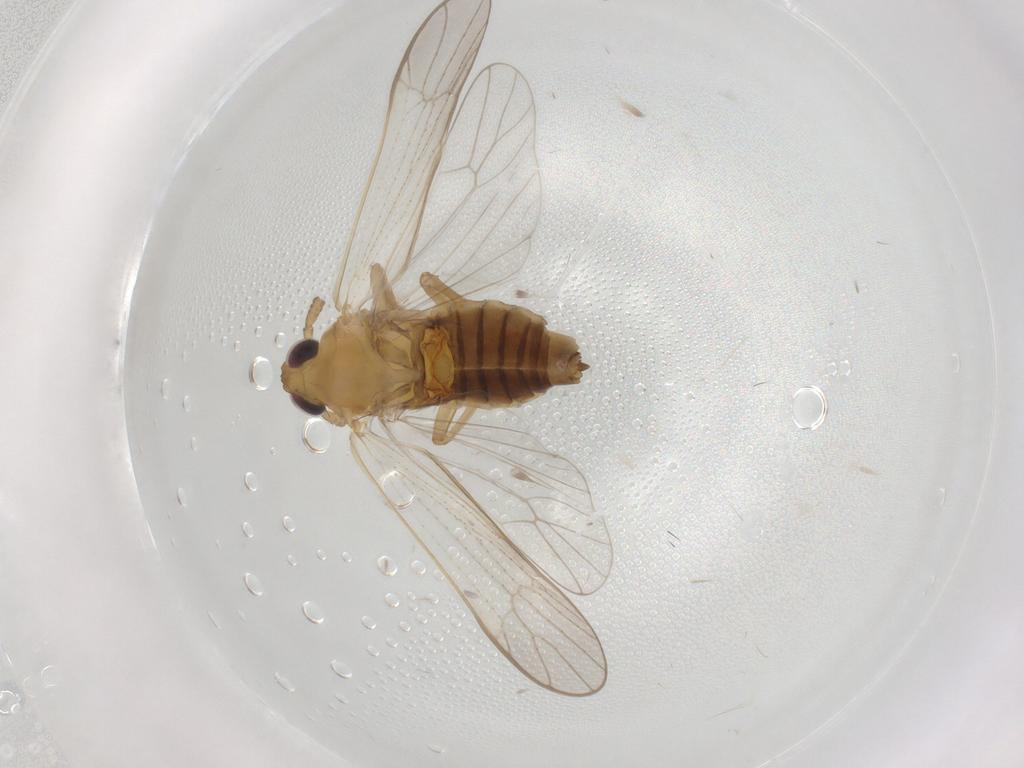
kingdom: Animalia
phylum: Arthropoda
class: Insecta
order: Hemiptera
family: Delphacidae
